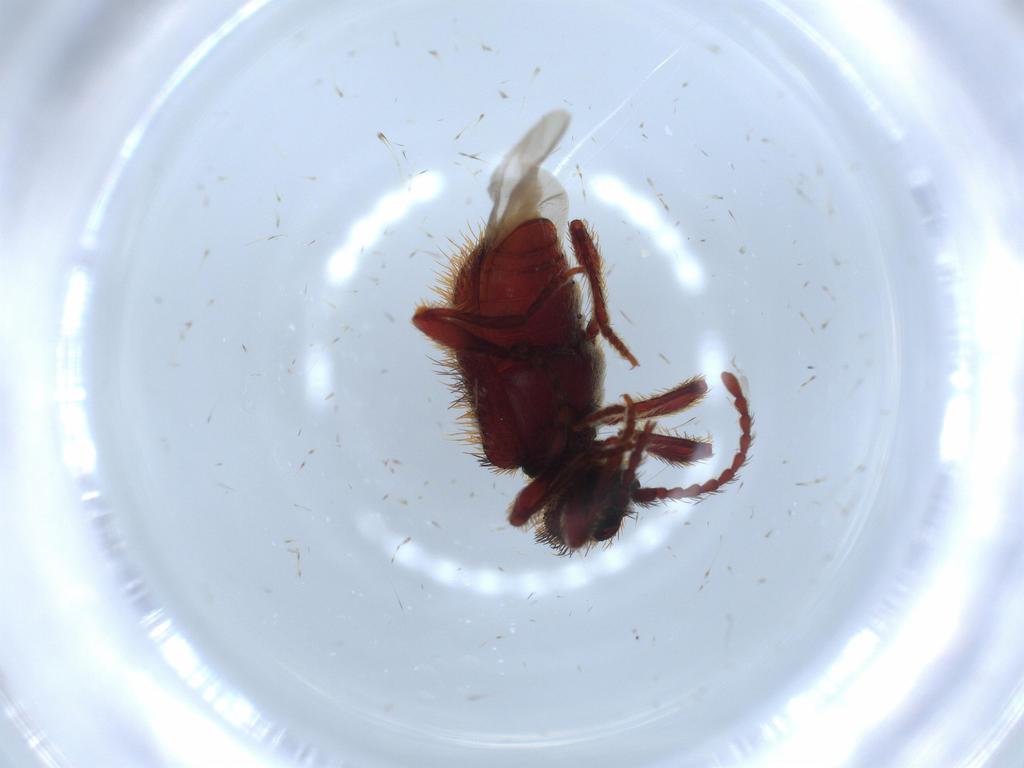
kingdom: Animalia
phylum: Arthropoda
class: Insecta
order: Coleoptera
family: Ptinidae
